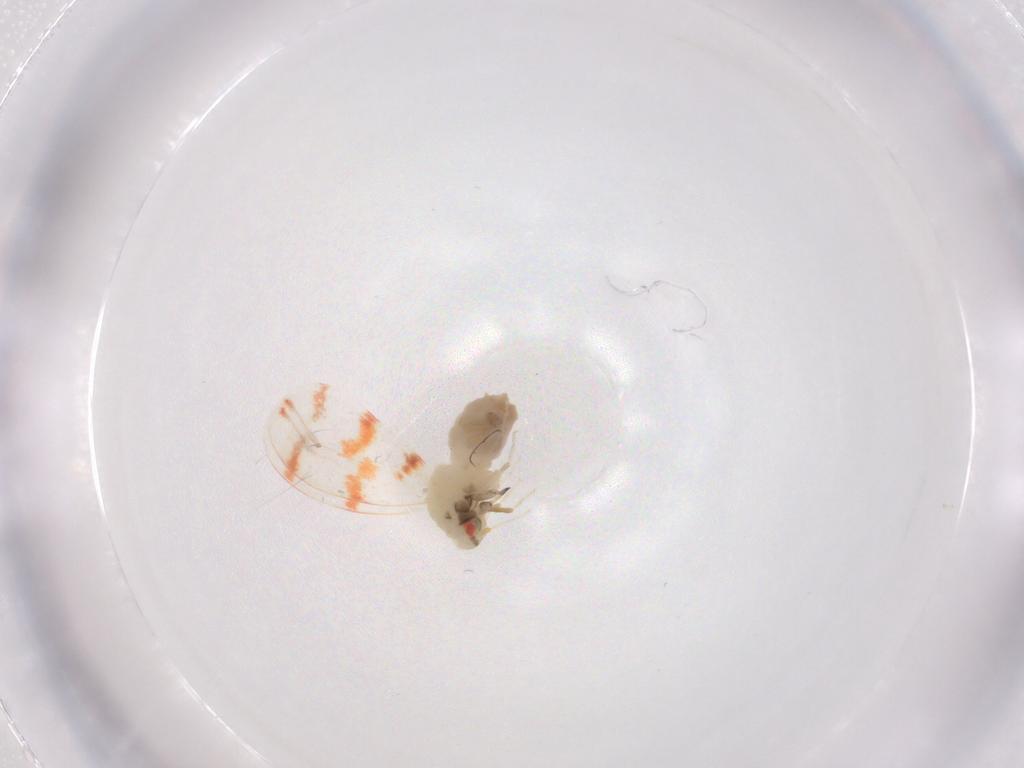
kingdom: Animalia
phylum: Arthropoda
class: Insecta
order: Hemiptera
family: Aleyrodidae
